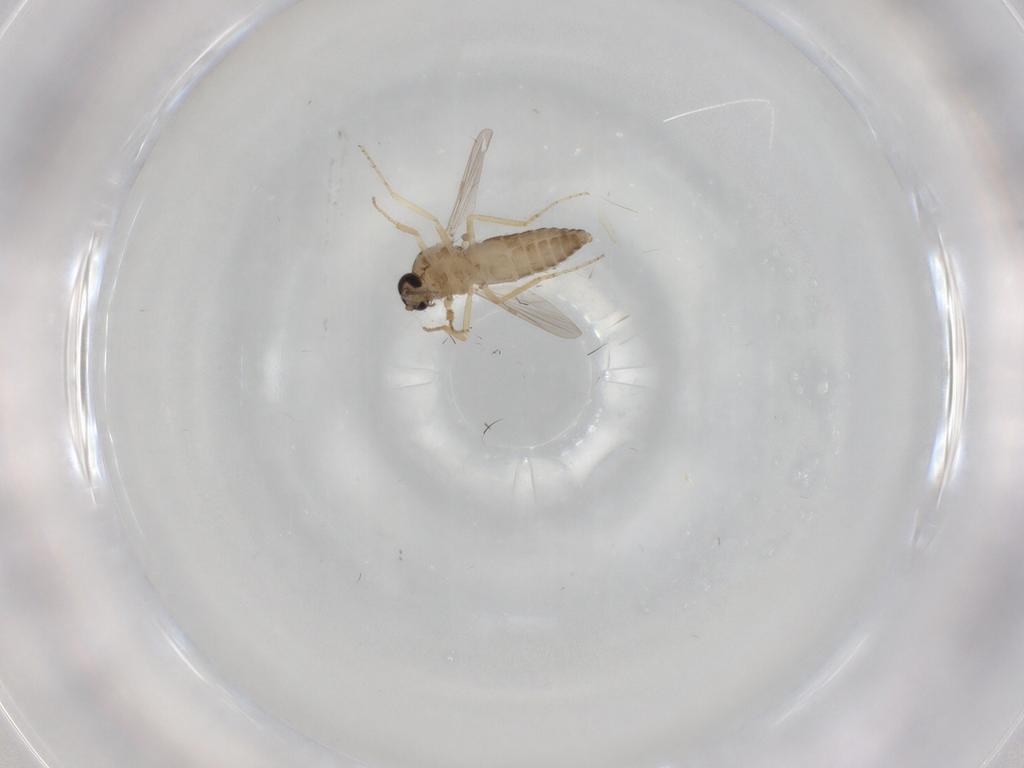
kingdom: Animalia
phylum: Arthropoda
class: Insecta
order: Diptera
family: Ceratopogonidae
